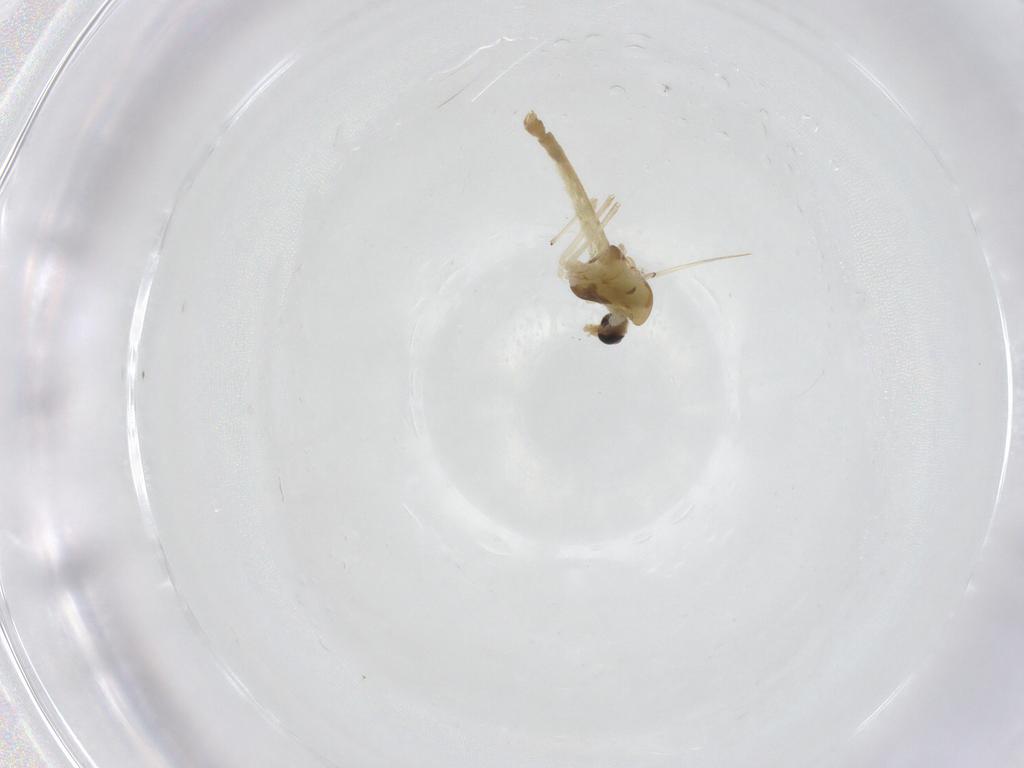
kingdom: Animalia
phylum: Arthropoda
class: Insecta
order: Diptera
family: Chironomidae
